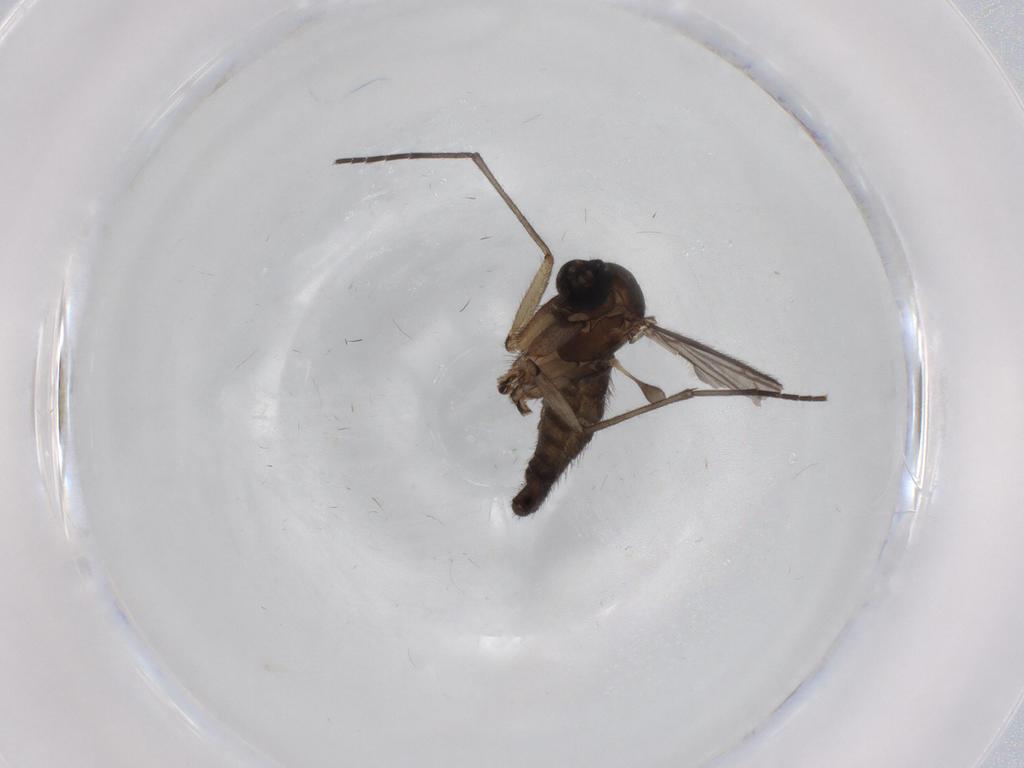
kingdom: Animalia
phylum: Arthropoda
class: Insecta
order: Diptera
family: Sciaridae
